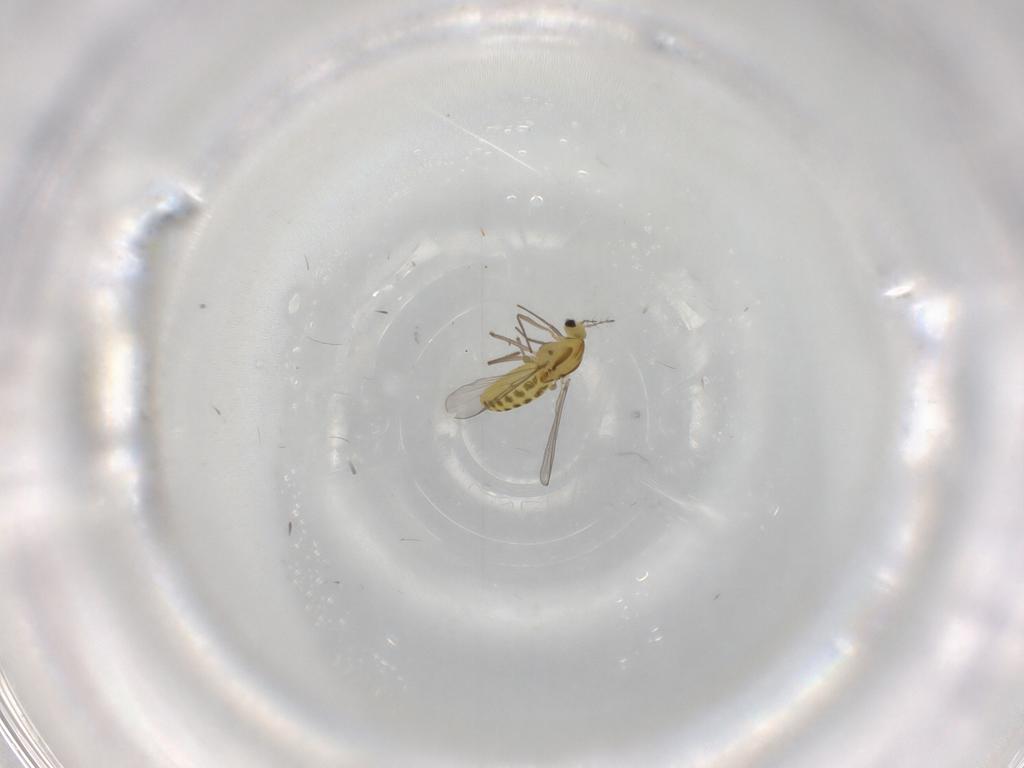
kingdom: Animalia
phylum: Arthropoda
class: Insecta
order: Diptera
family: Chironomidae
